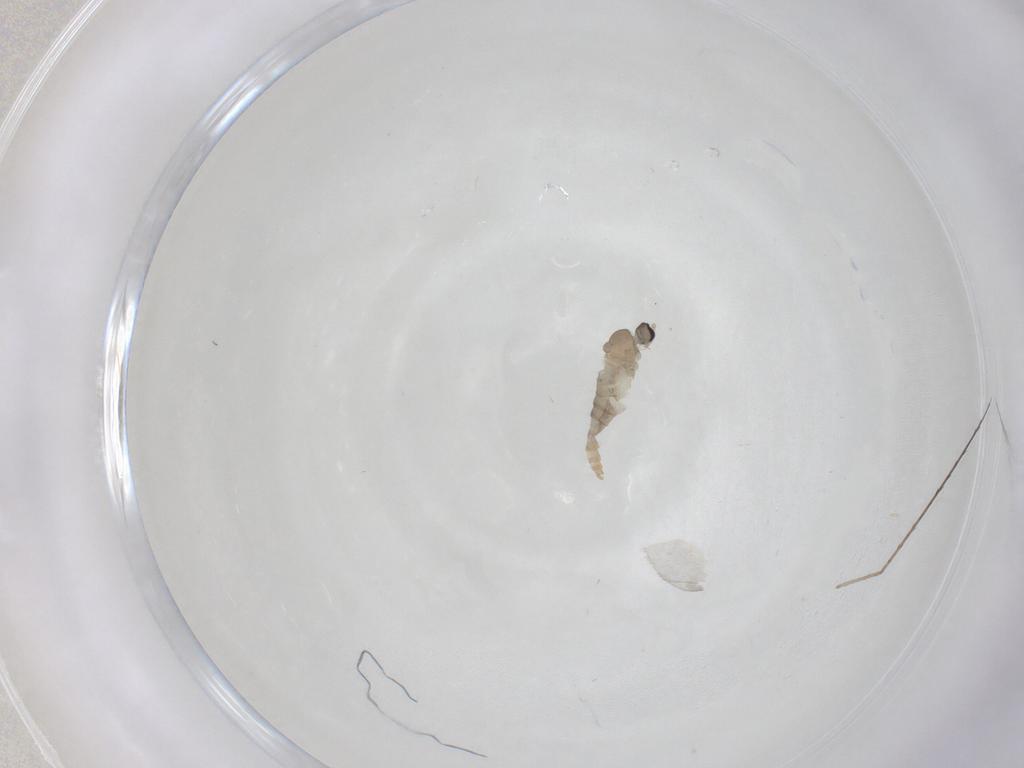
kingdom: Animalia
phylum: Arthropoda
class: Insecta
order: Diptera
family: Cecidomyiidae
